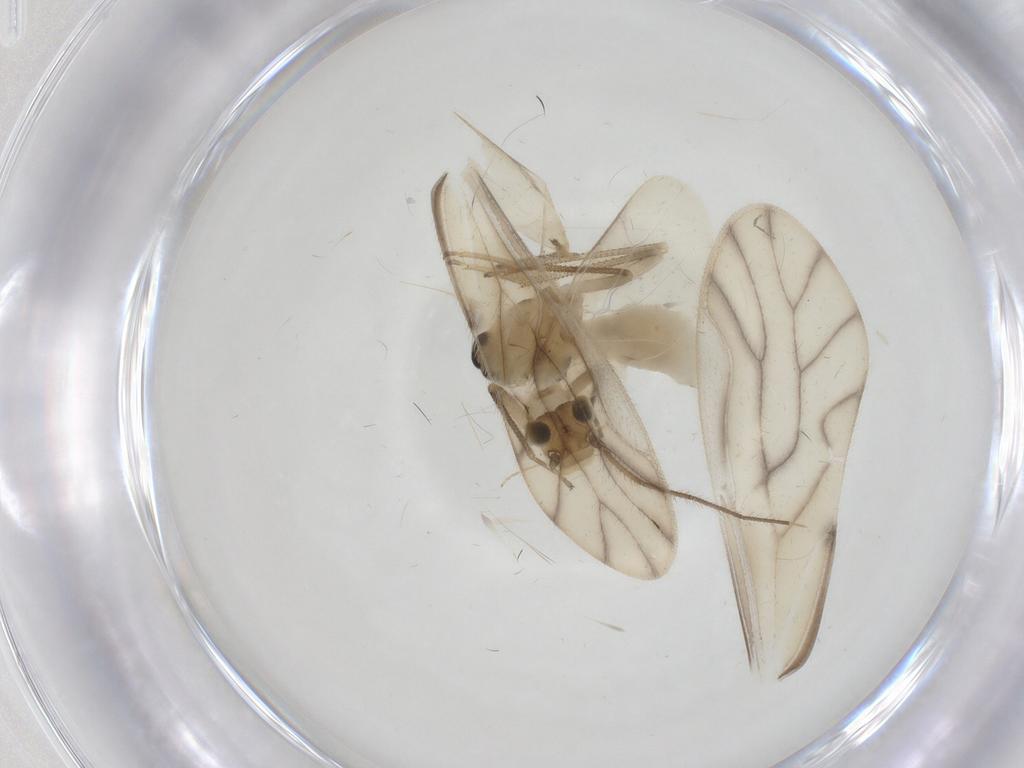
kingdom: Animalia
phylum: Arthropoda
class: Insecta
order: Psocodea
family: Caeciliusidae
